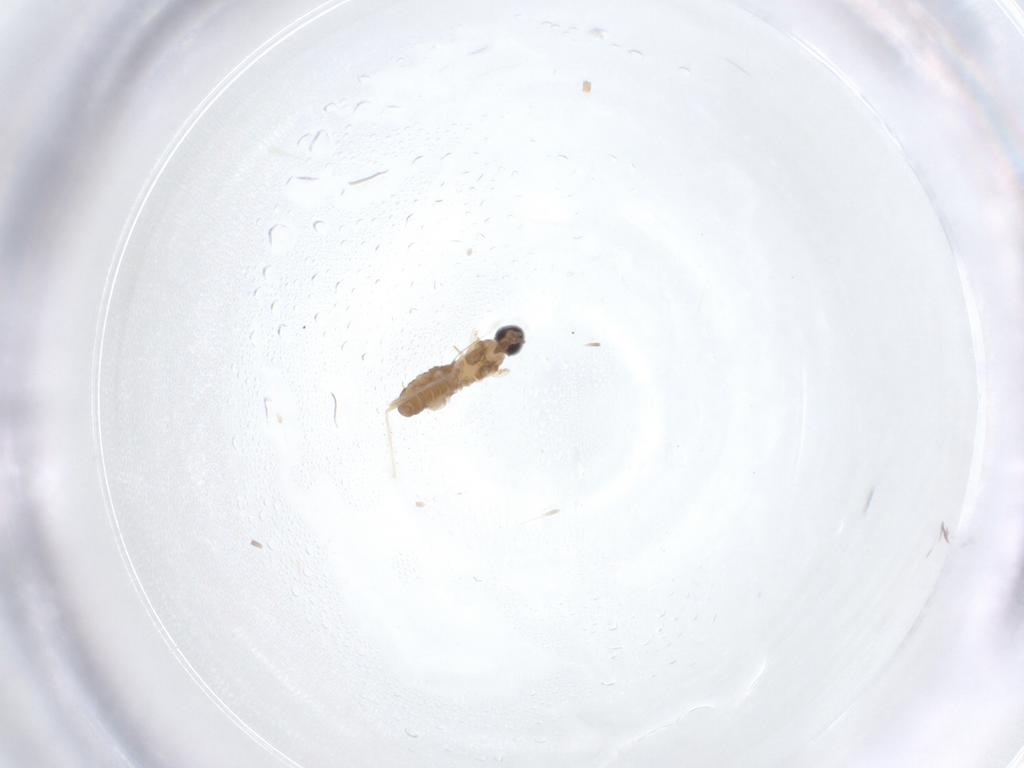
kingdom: Animalia
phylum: Arthropoda
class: Insecta
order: Diptera
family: Cecidomyiidae
